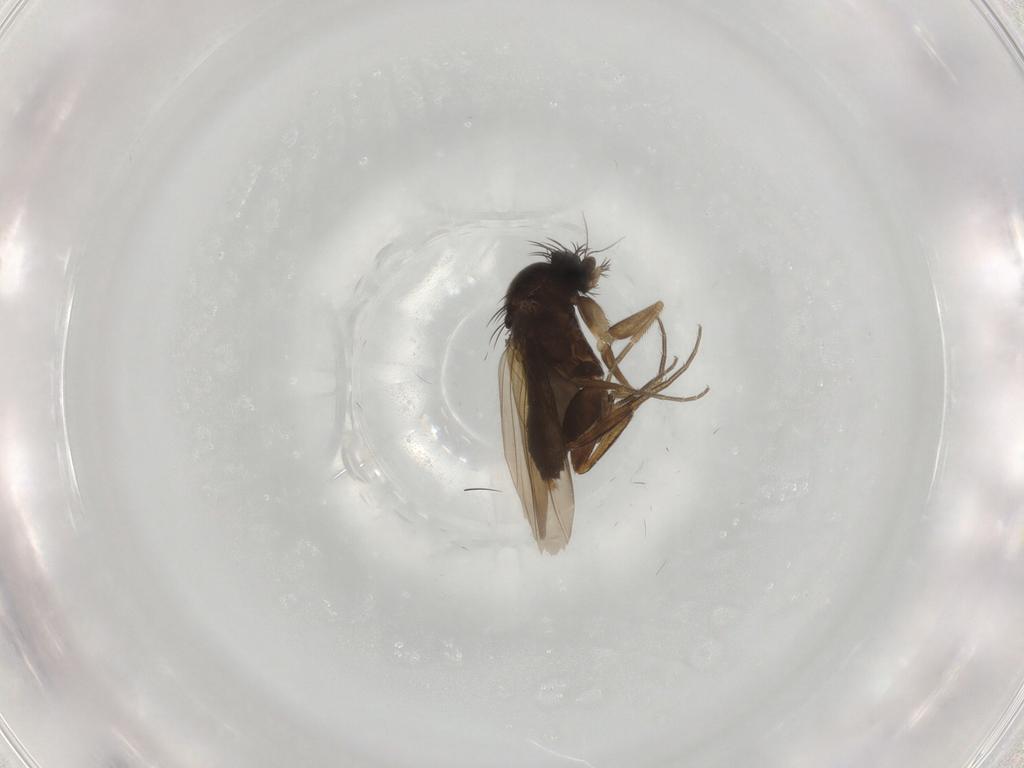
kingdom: Animalia
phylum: Arthropoda
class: Insecta
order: Diptera
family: Phoridae
